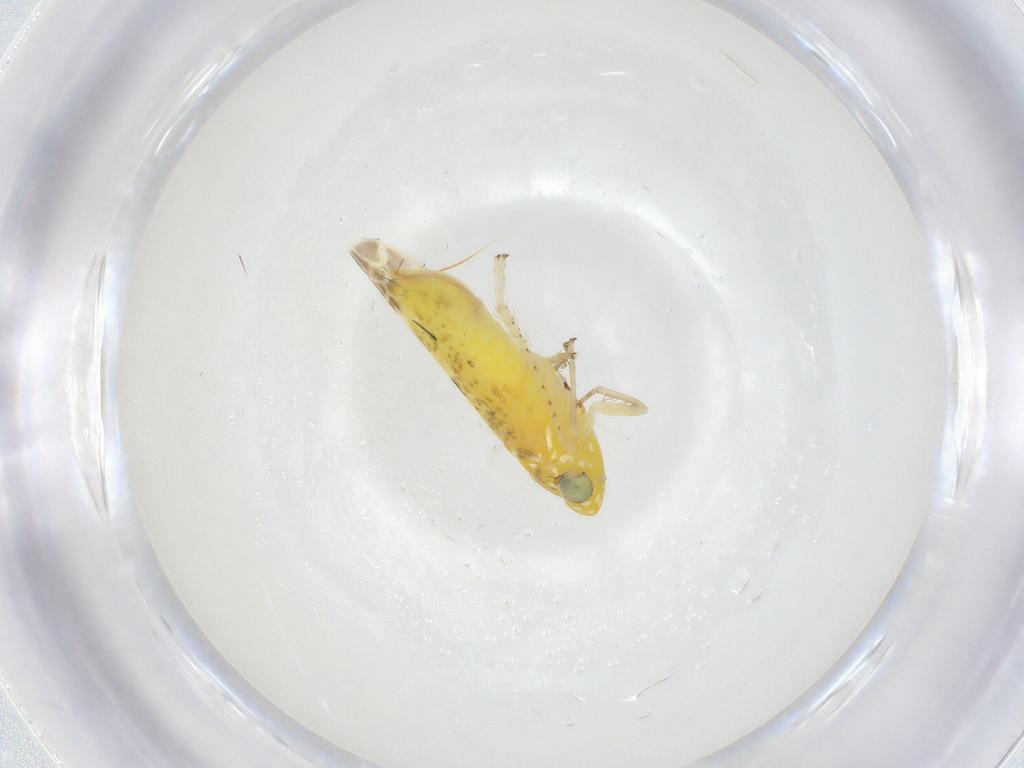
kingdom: Animalia
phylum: Arthropoda
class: Insecta
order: Hemiptera
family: Cicadellidae
